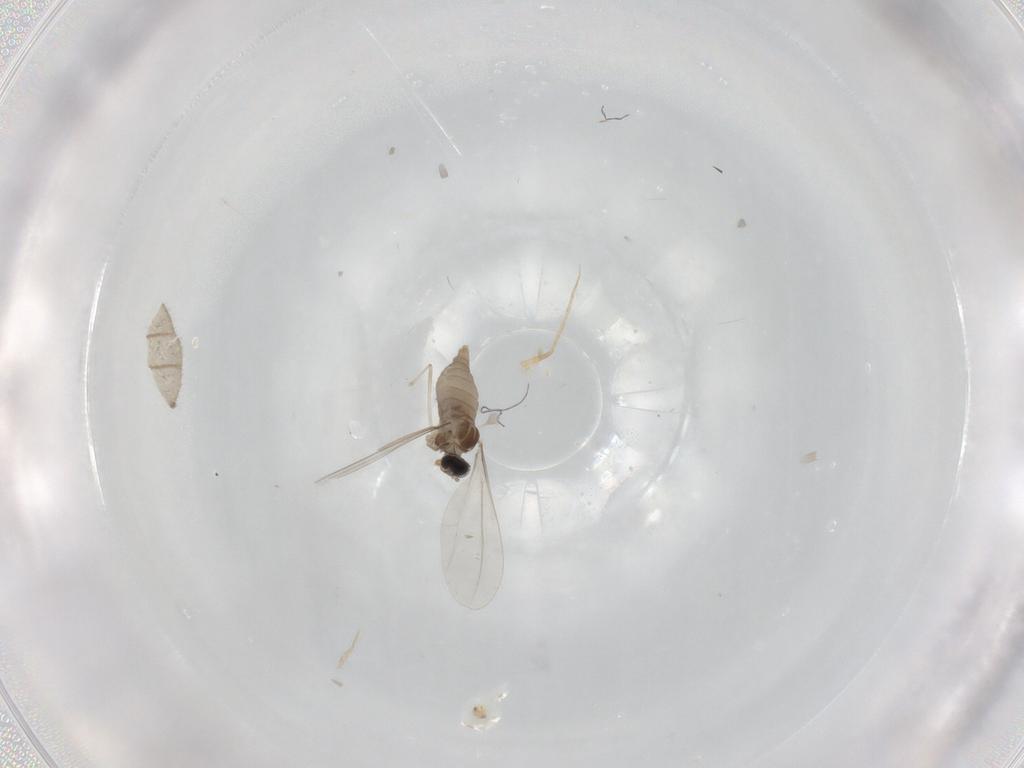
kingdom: Animalia
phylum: Arthropoda
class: Insecta
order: Diptera
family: Cecidomyiidae
